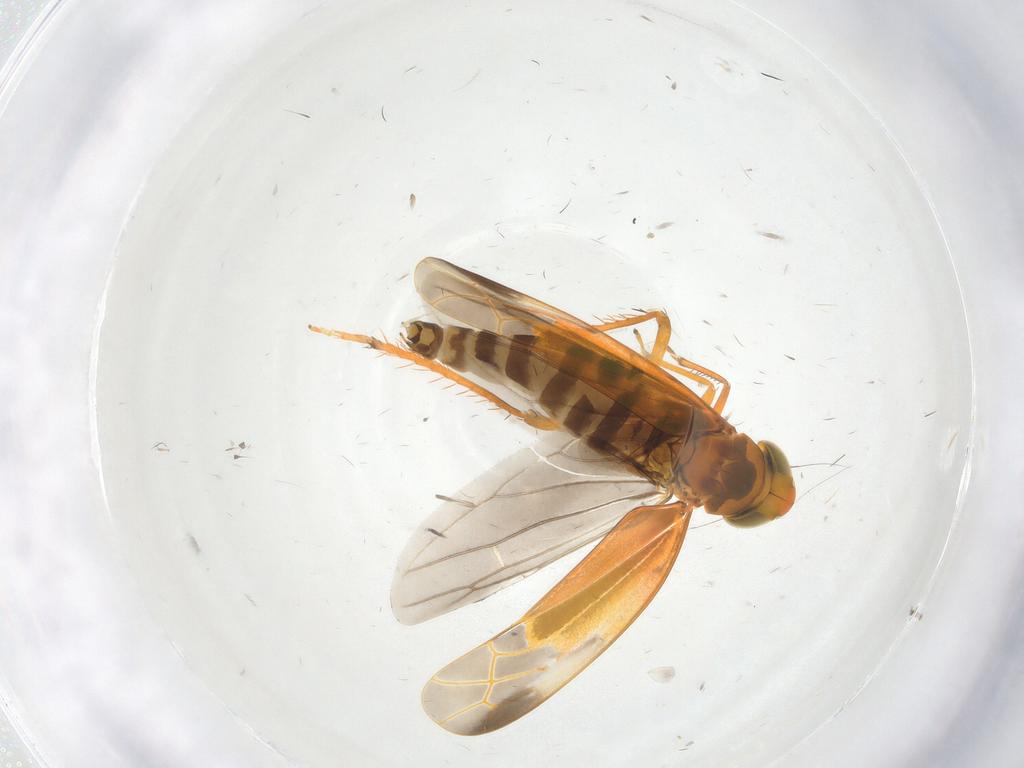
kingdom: Animalia
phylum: Arthropoda
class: Insecta
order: Hemiptera
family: Cicadellidae
